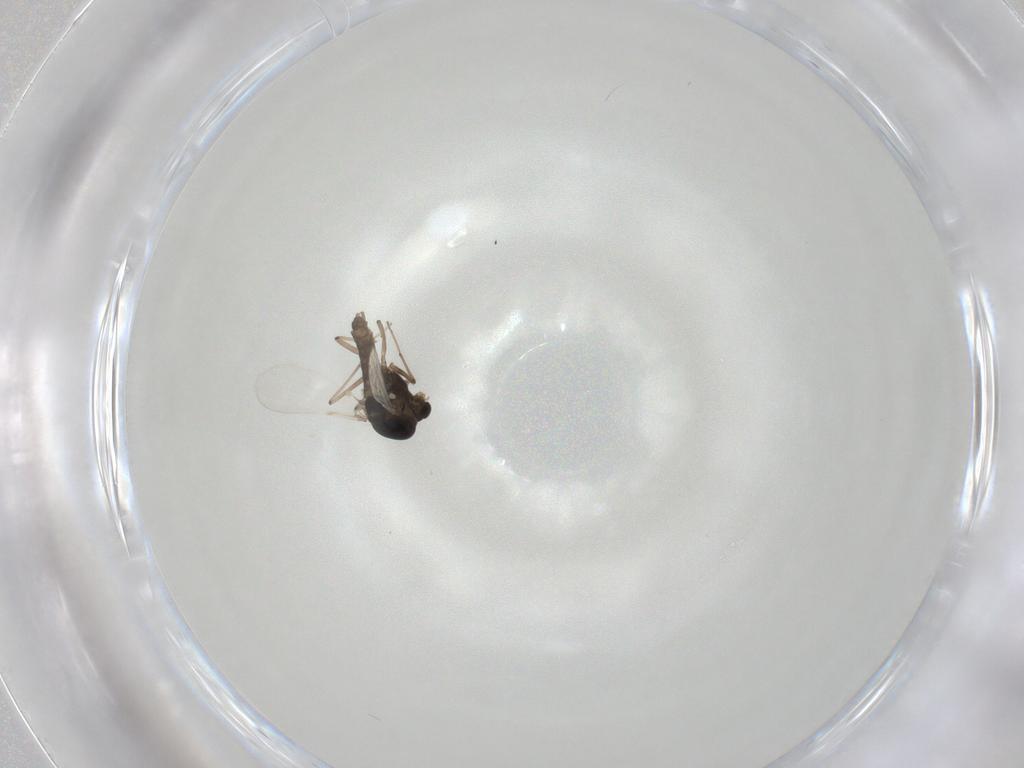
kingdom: Animalia
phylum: Arthropoda
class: Insecta
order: Diptera
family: Chironomidae
